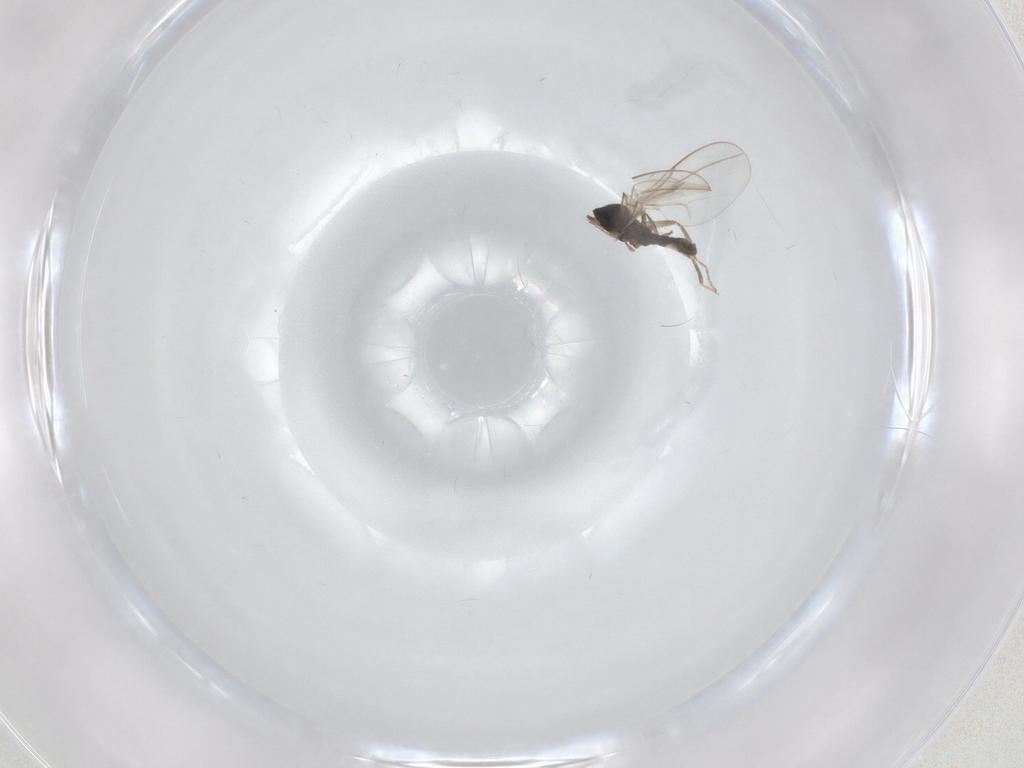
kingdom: Animalia
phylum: Arthropoda
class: Insecta
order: Diptera
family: Cecidomyiidae
